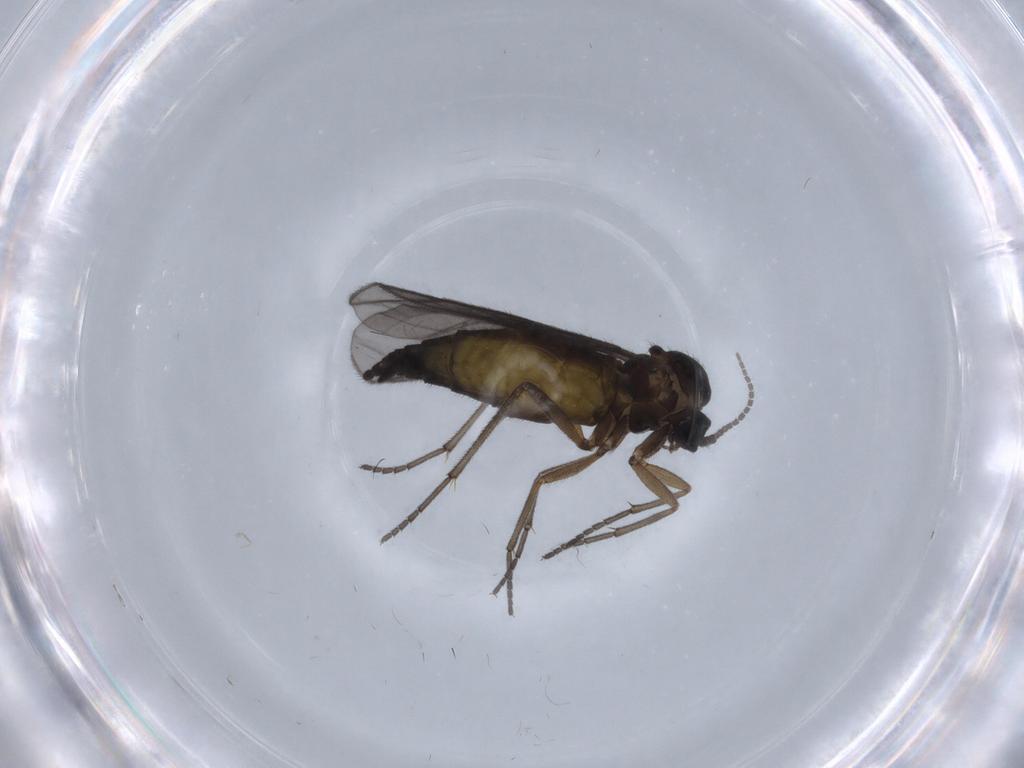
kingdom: Animalia
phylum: Arthropoda
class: Insecta
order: Diptera
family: Sciaridae
